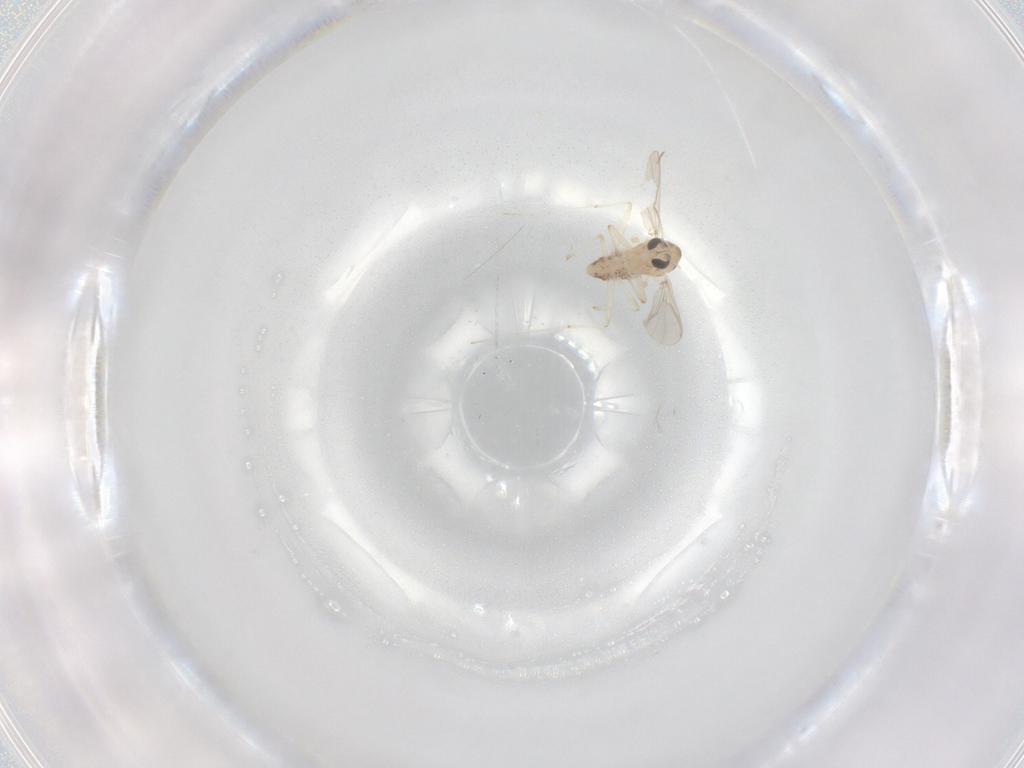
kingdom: Animalia
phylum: Arthropoda
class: Insecta
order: Diptera
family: Chironomidae
